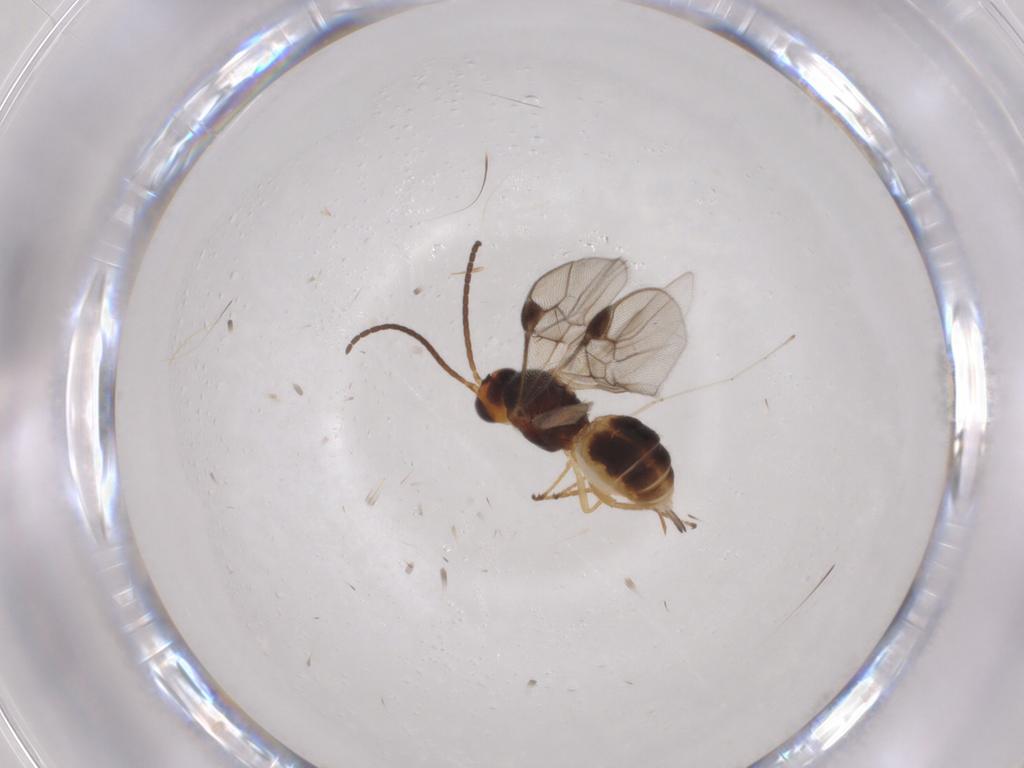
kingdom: Animalia
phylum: Arthropoda
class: Insecta
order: Hymenoptera
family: Braconidae
